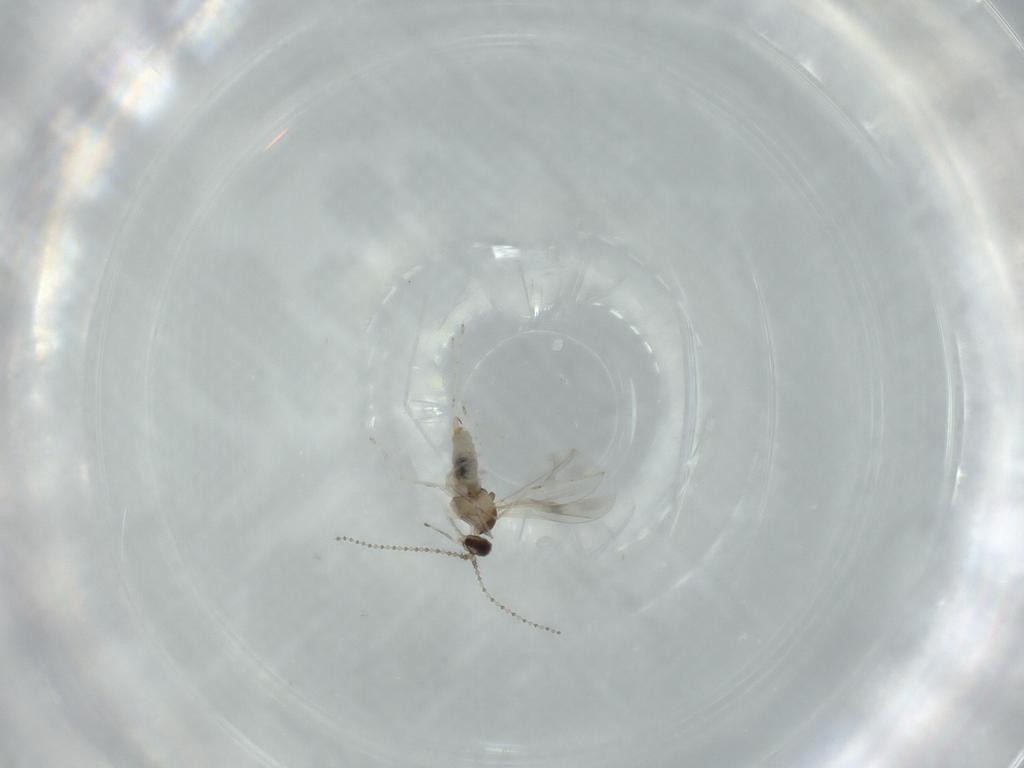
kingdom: Animalia
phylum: Arthropoda
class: Insecta
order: Diptera
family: Cecidomyiidae
